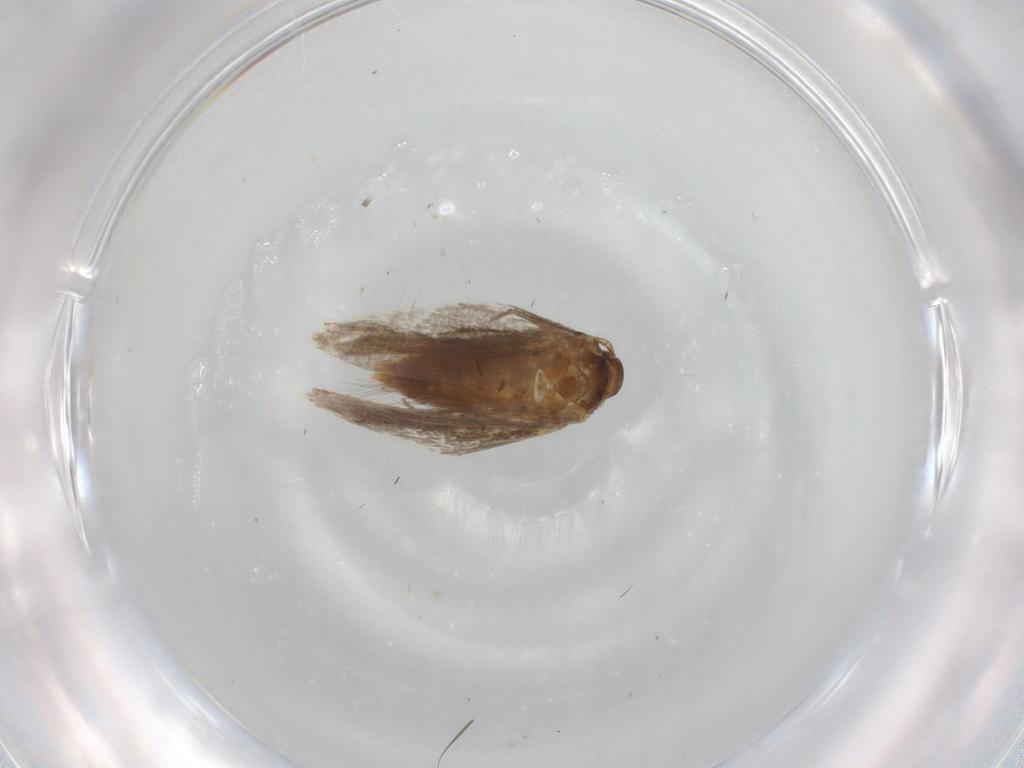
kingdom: Animalia
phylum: Arthropoda
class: Insecta
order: Lepidoptera
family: Gelechiidae
